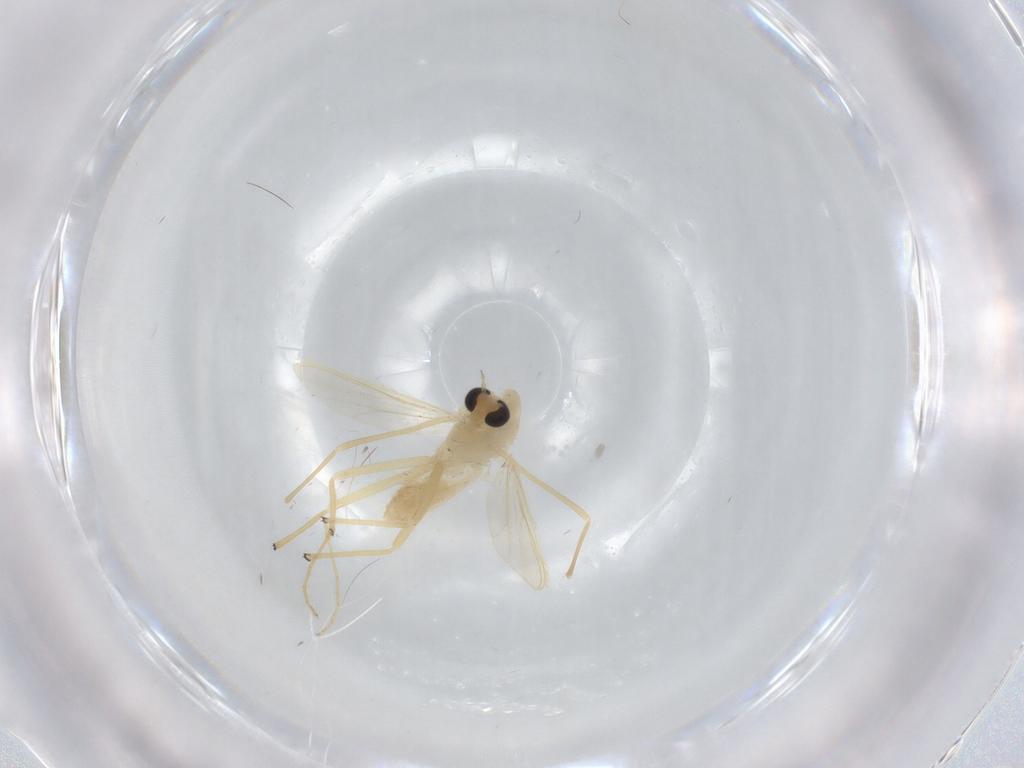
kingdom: Animalia
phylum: Arthropoda
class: Insecta
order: Diptera
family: Chironomidae
